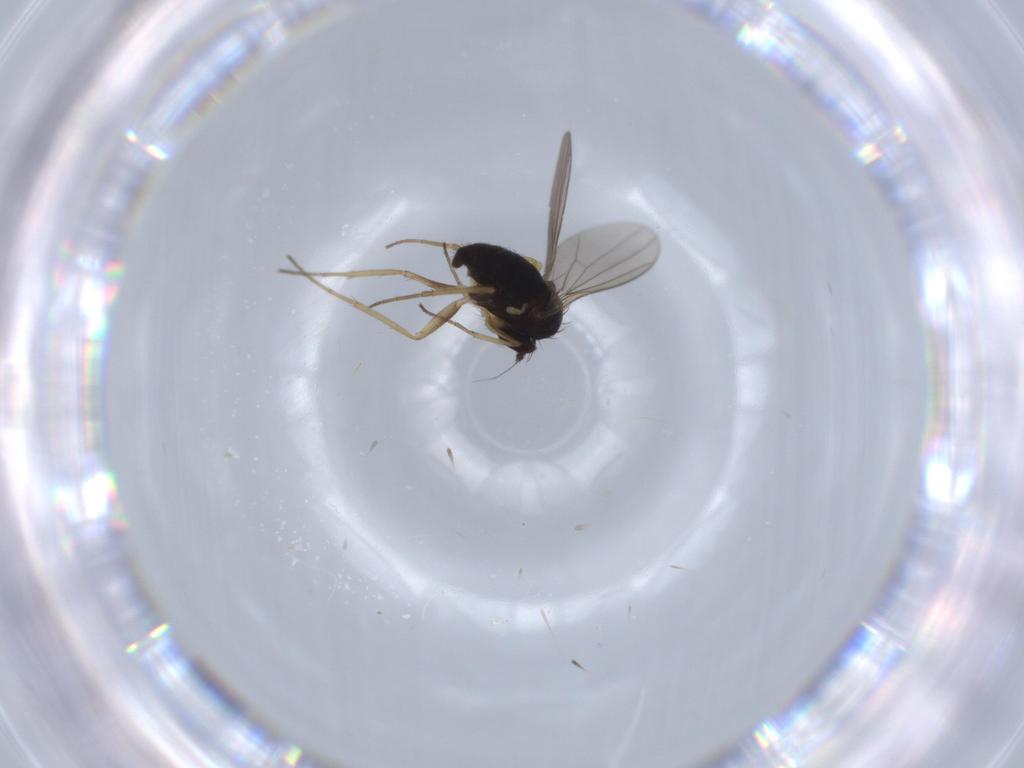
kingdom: Animalia
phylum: Arthropoda
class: Insecta
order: Diptera
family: Dolichopodidae
